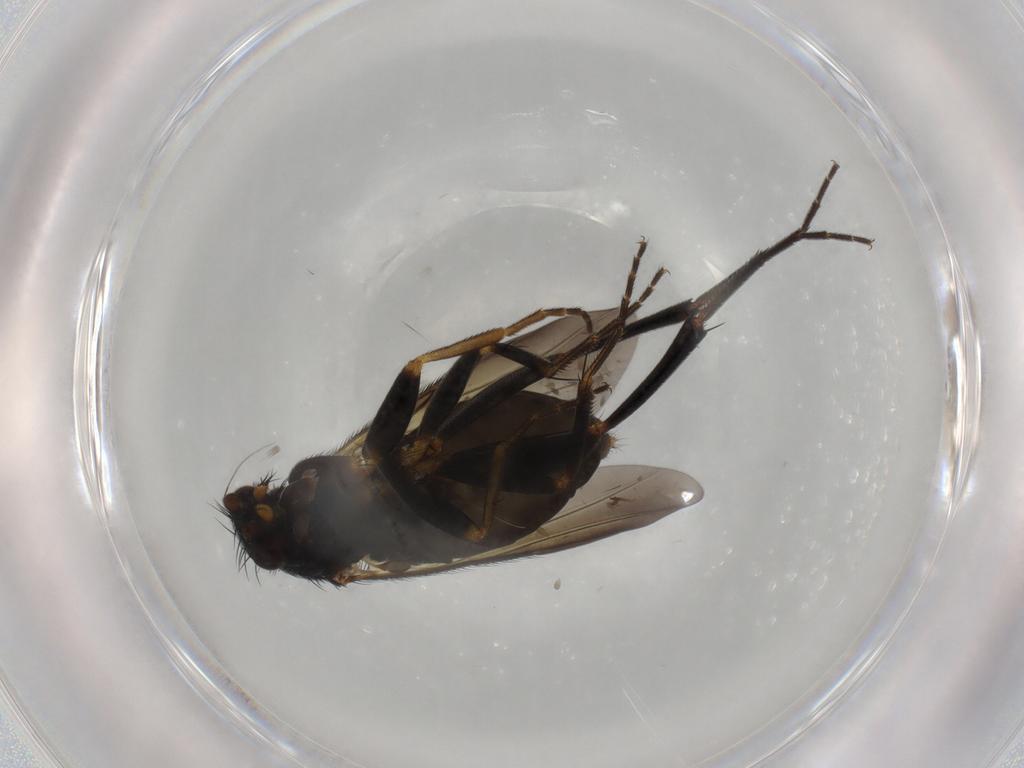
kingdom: Animalia
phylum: Arthropoda
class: Insecta
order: Diptera
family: Phoridae
